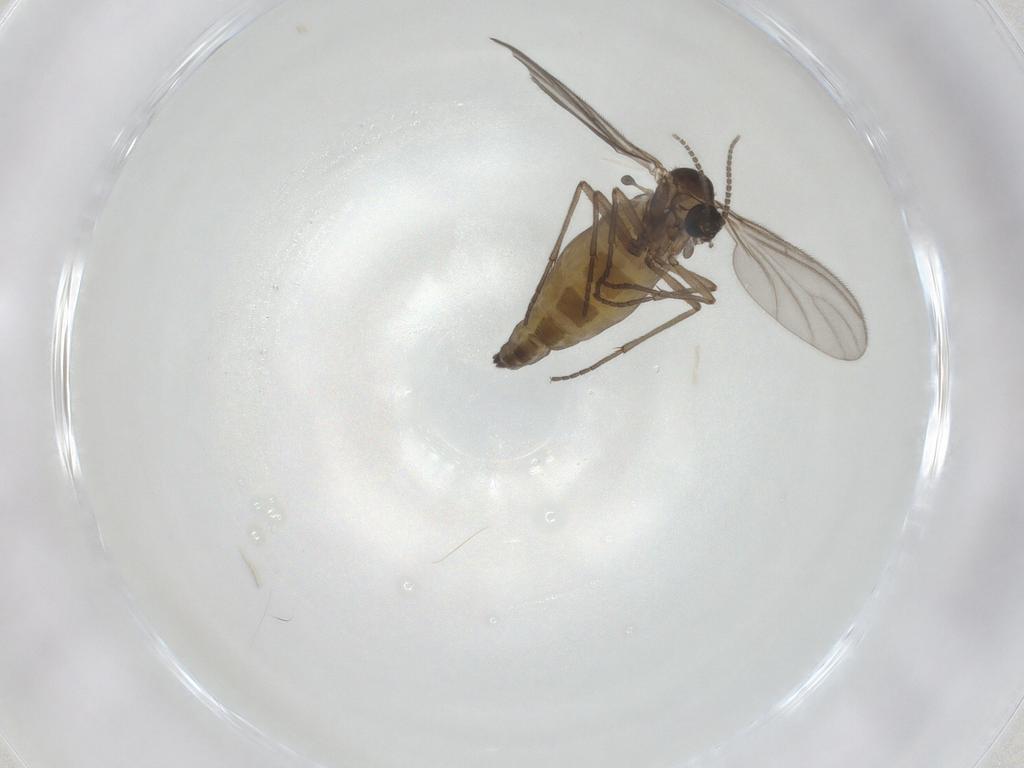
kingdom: Animalia
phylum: Arthropoda
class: Insecta
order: Diptera
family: Sciaridae
